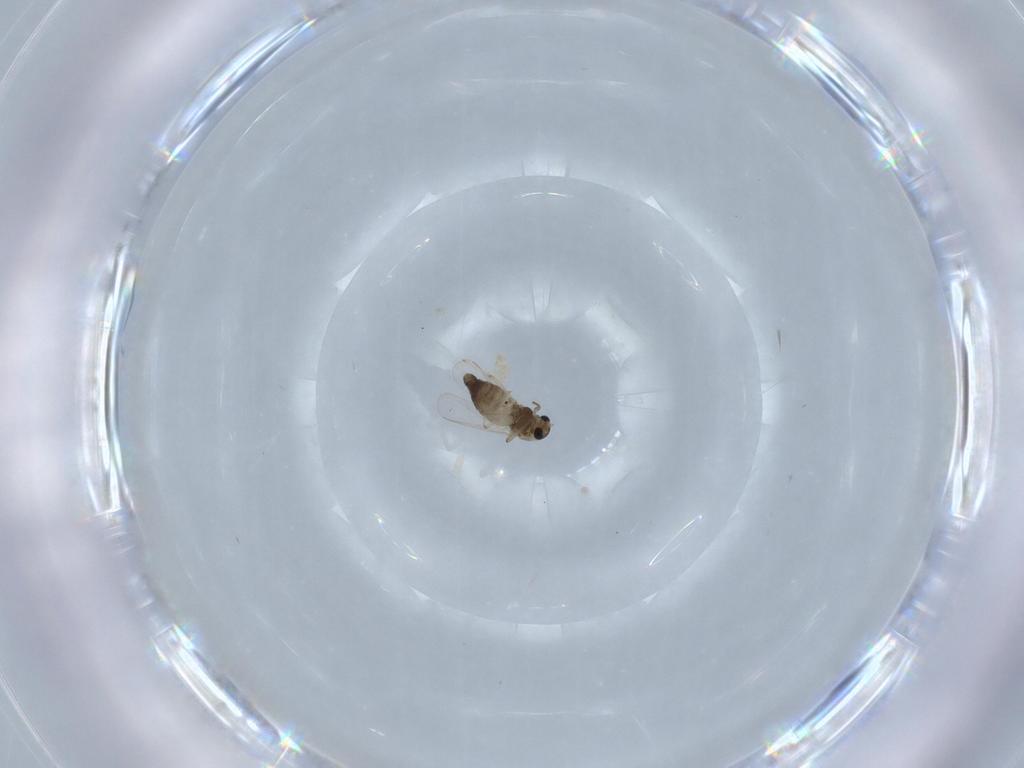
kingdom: Animalia
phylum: Arthropoda
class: Insecta
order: Diptera
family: Chironomidae
